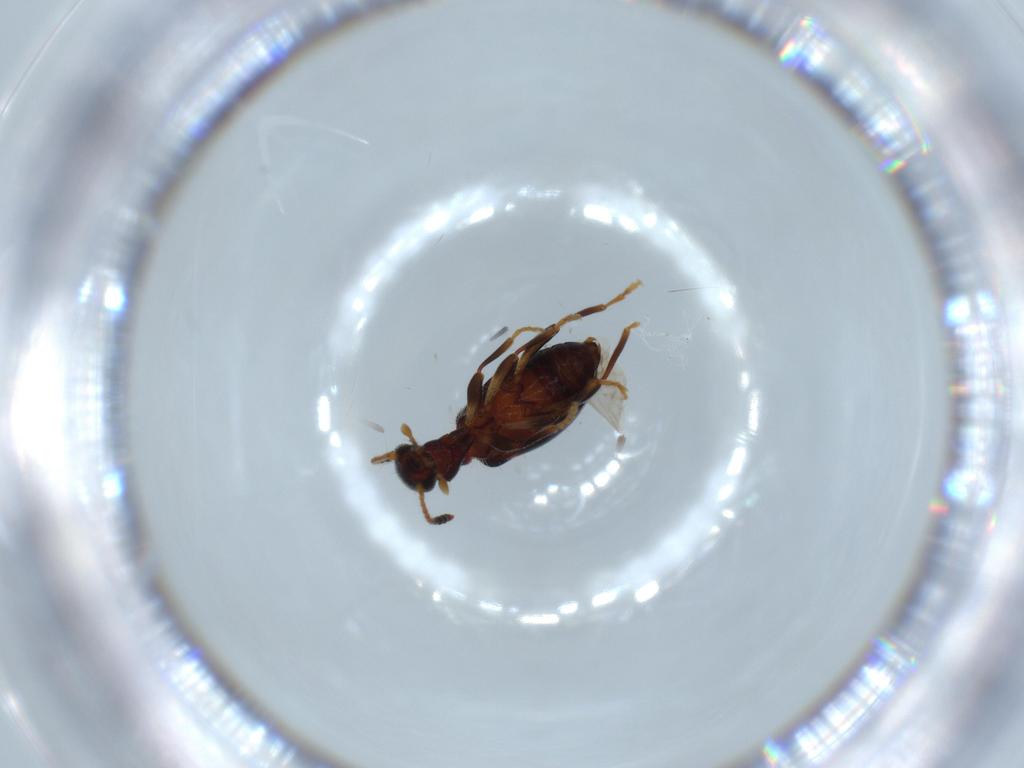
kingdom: Animalia
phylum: Arthropoda
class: Insecta
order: Coleoptera
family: Anthicidae
